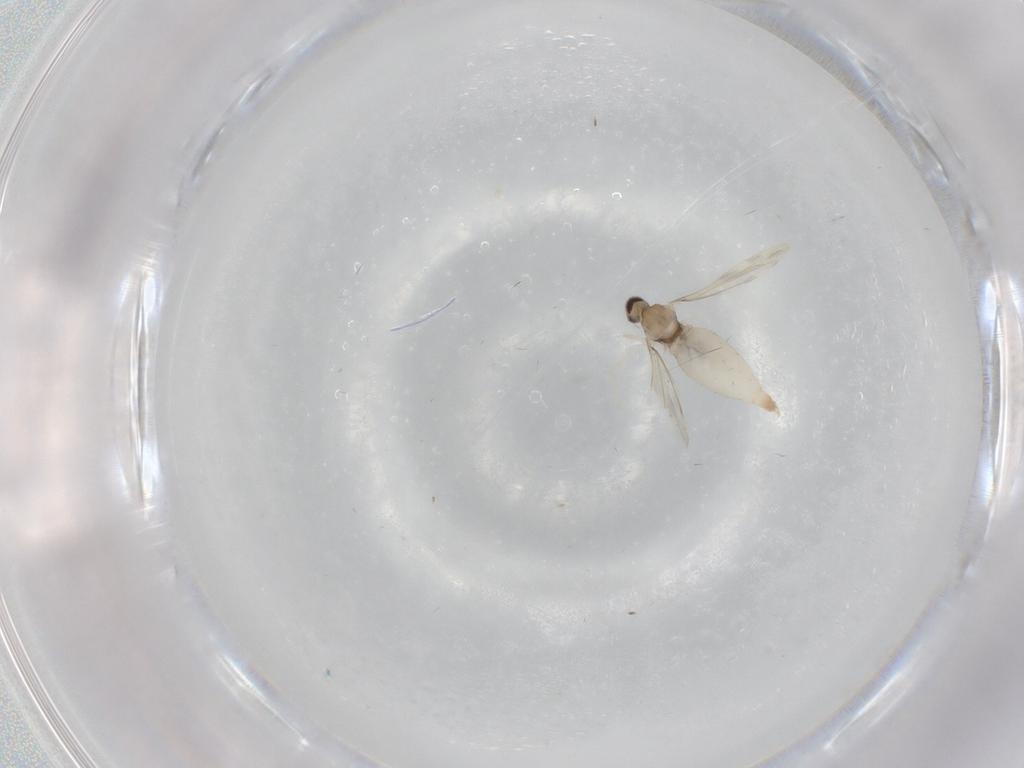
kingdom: Animalia
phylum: Arthropoda
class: Insecta
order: Diptera
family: Cecidomyiidae
